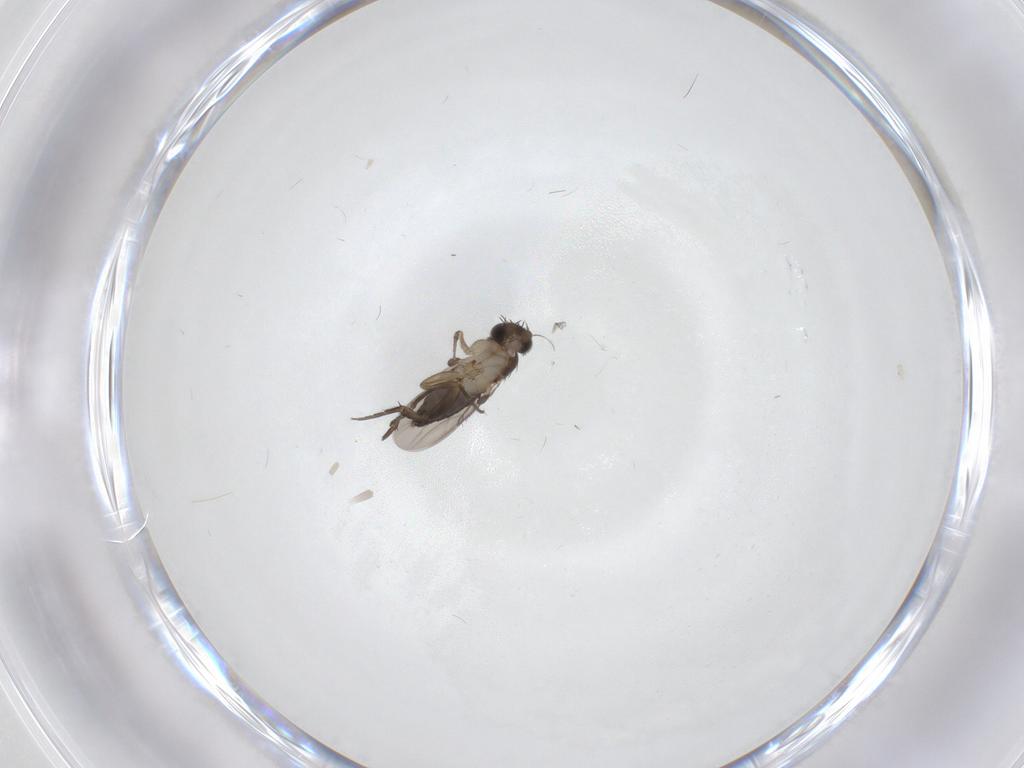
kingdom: Animalia
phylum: Arthropoda
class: Insecta
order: Diptera
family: Phoridae
